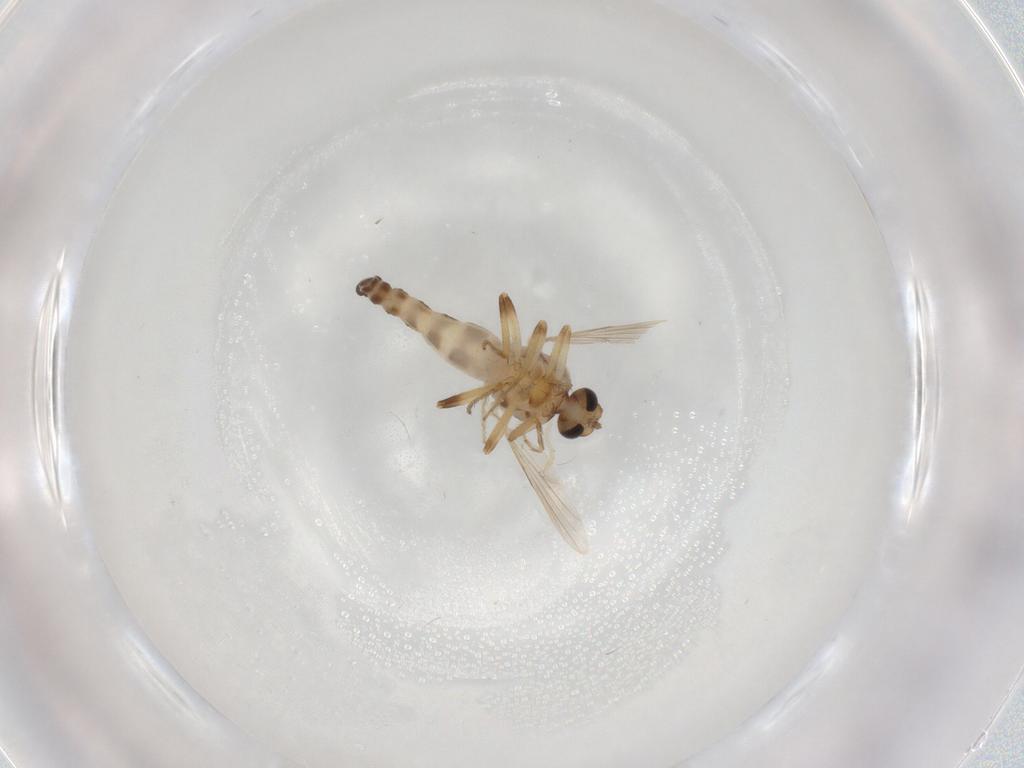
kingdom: Animalia
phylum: Arthropoda
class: Insecta
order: Diptera
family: Ceratopogonidae
